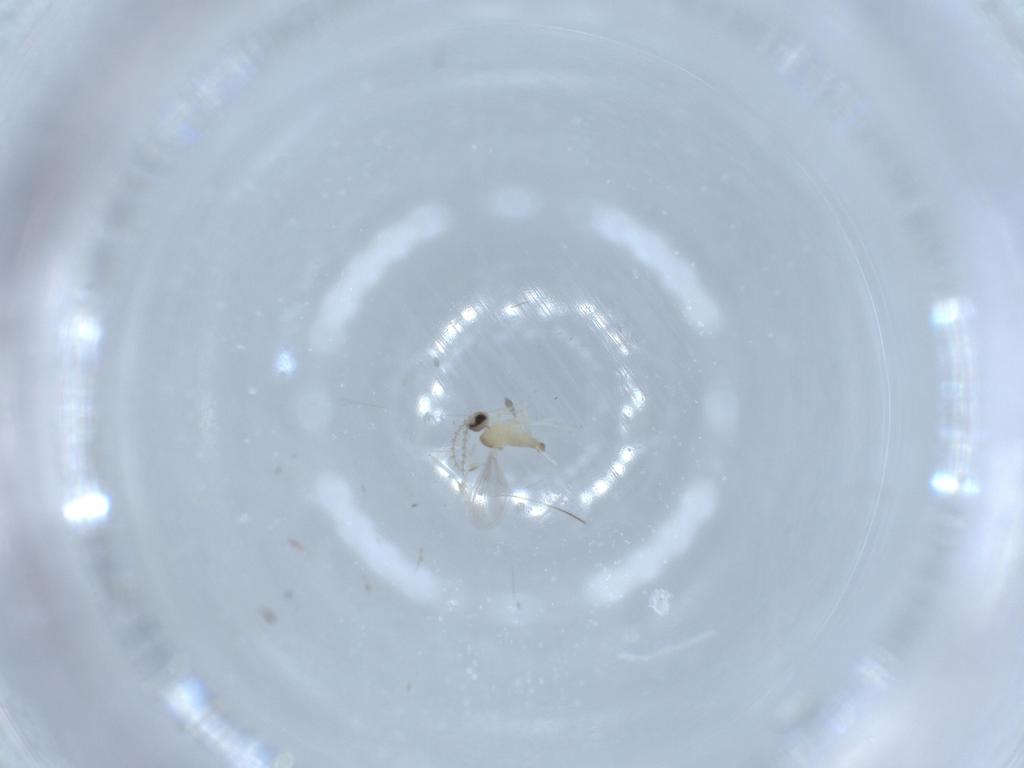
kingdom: Animalia
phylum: Arthropoda
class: Insecta
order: Diptera
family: Cecidomyiidae
